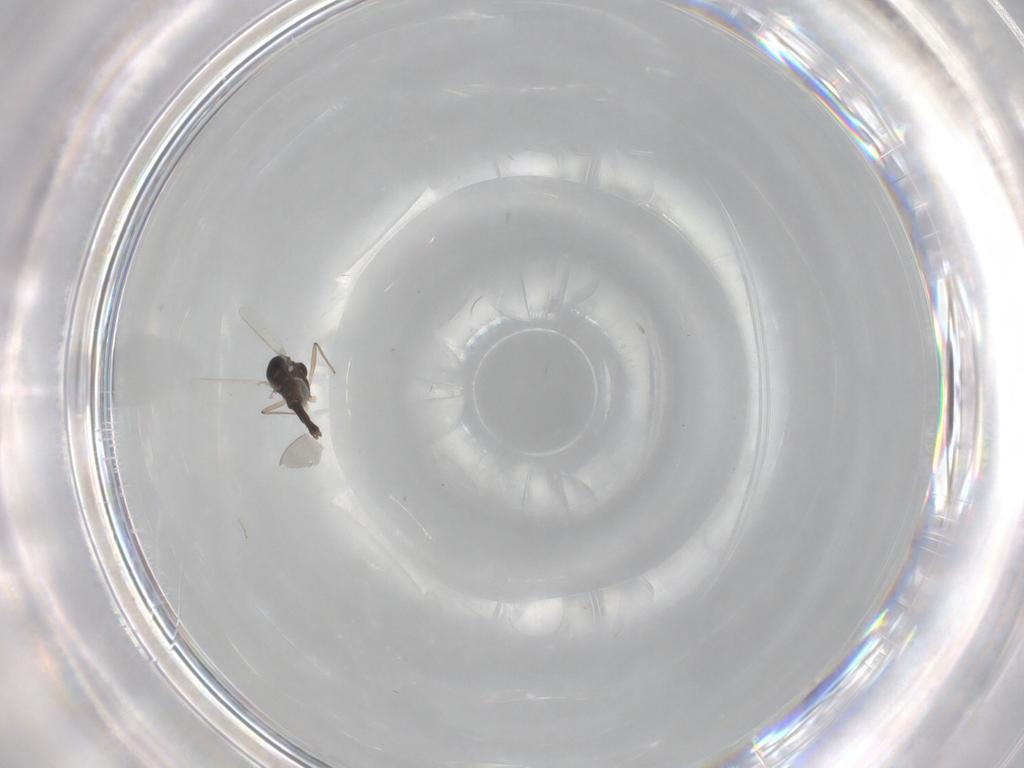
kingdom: Animalia
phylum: Arthropoda
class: Insecta
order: Diptera
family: Chironomidae
